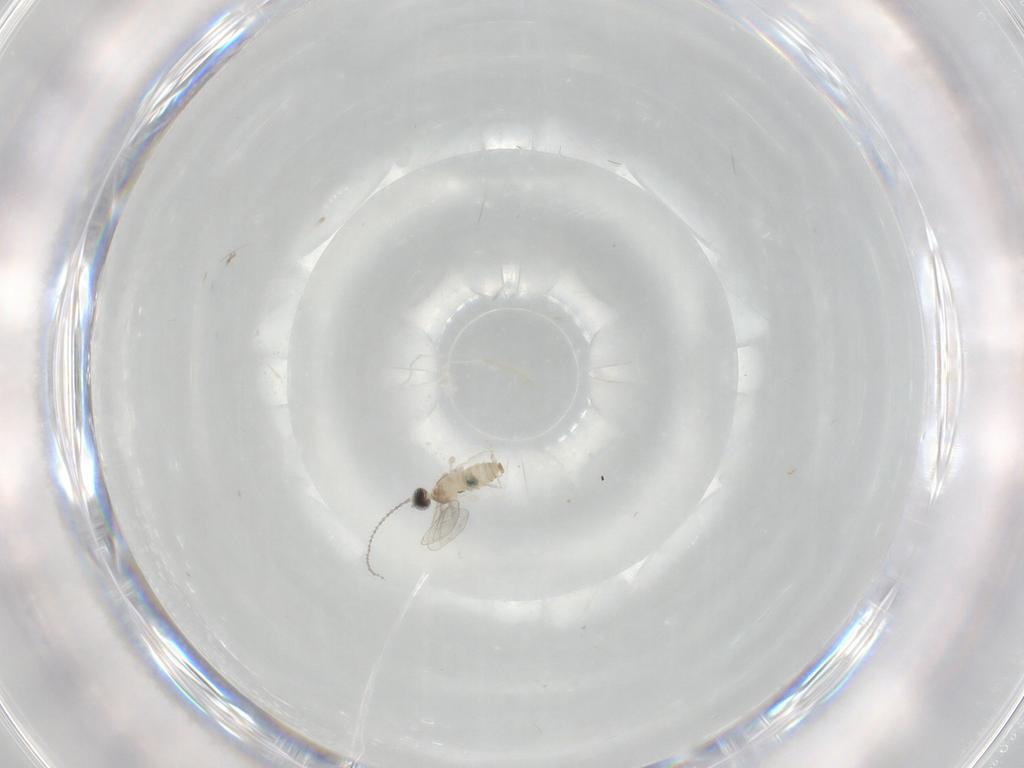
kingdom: Animalia
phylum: Arthropoda
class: Insecta
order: Diptera
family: Cecidomyiidae
